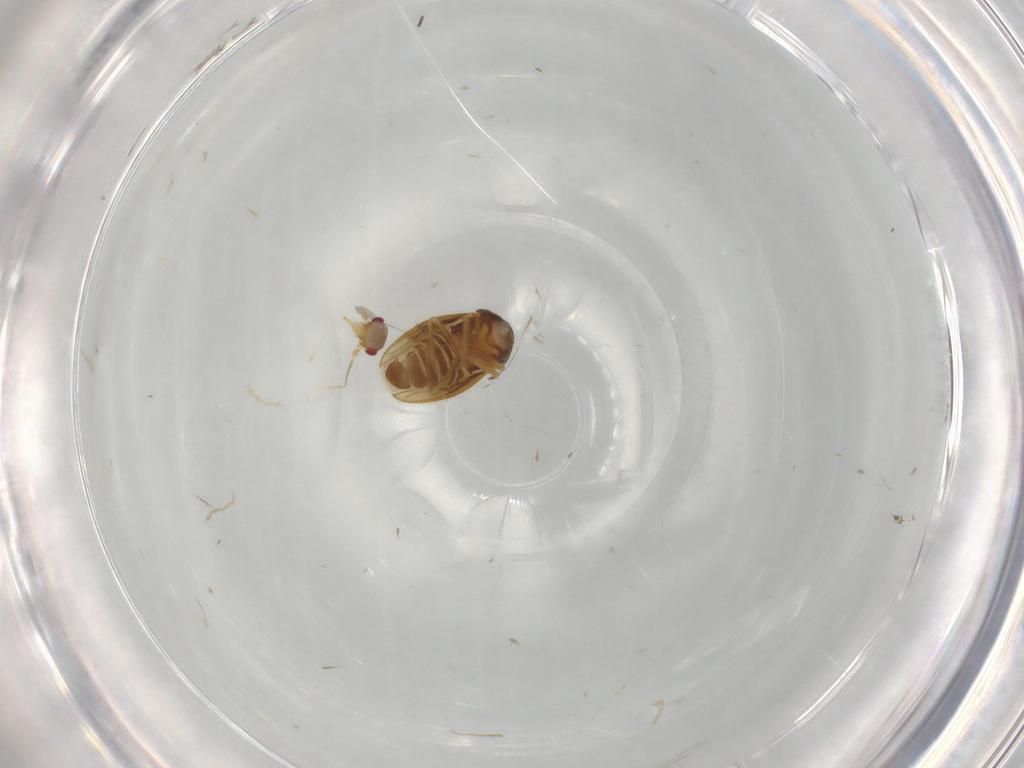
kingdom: Animalia
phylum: Arthropoda
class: Insecta
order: Hemiptera
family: Schizopteridae
